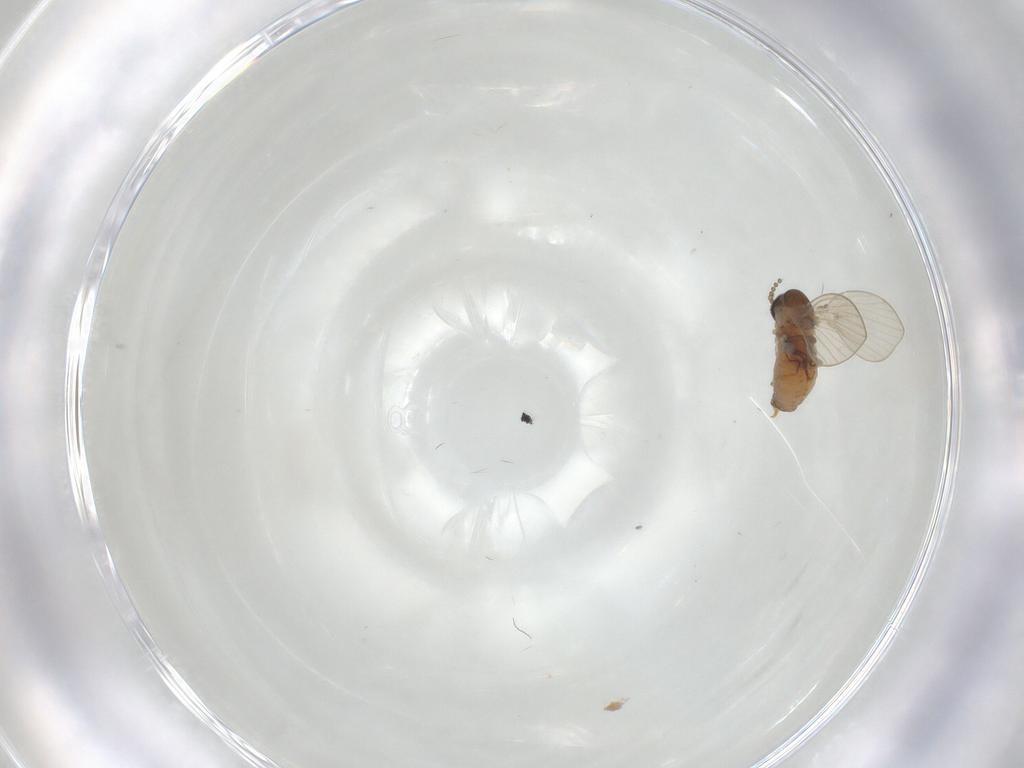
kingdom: Animalia
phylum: Arthropoda
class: Insecta
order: Diptera
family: Psychodidae
